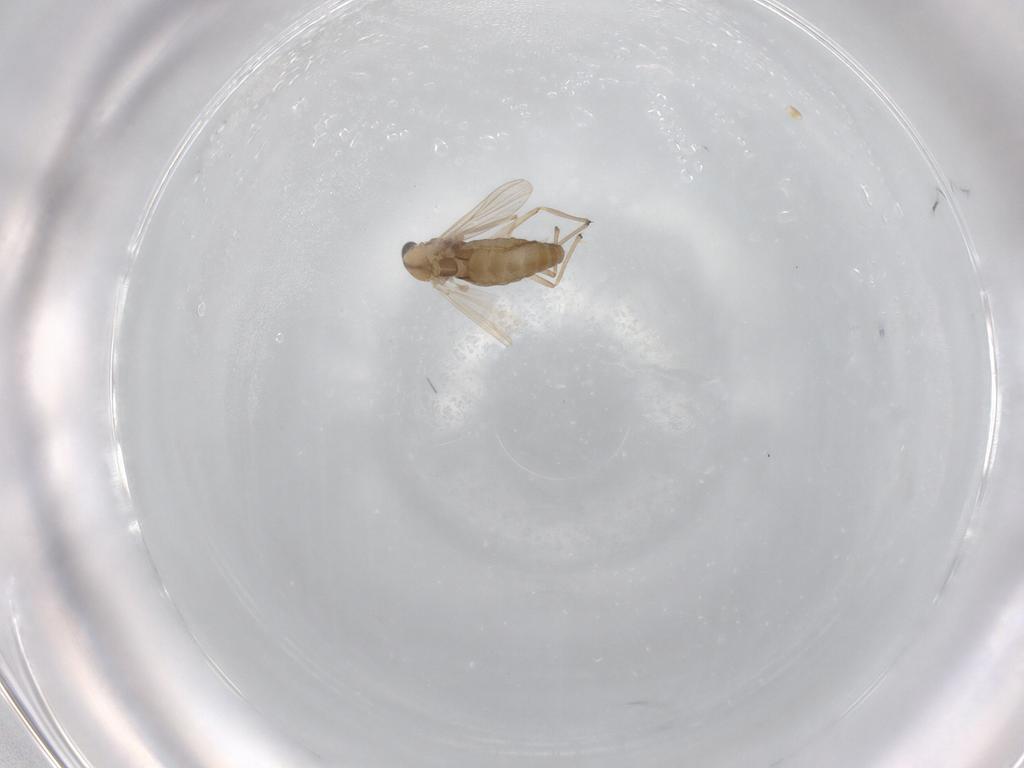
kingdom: Animalia
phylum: Arthropoda
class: Insecta
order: Diptera
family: Chironomidae
